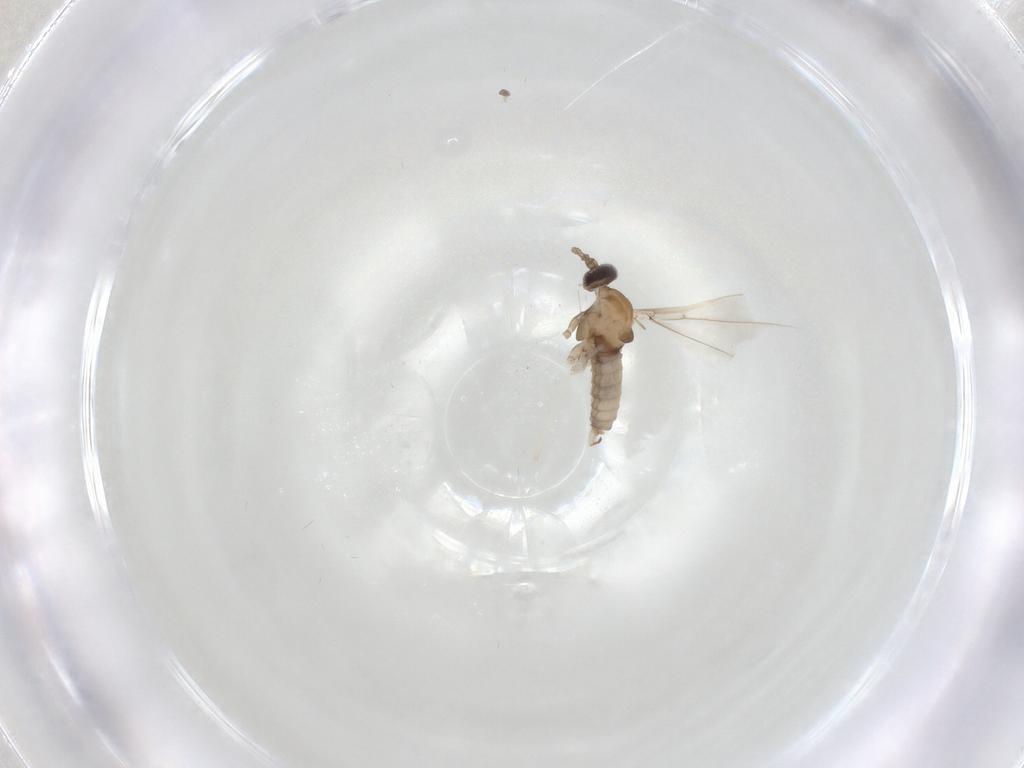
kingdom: Animalia
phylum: Arthropoda
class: Insecta
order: Diptera
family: Cecidomyiidae
